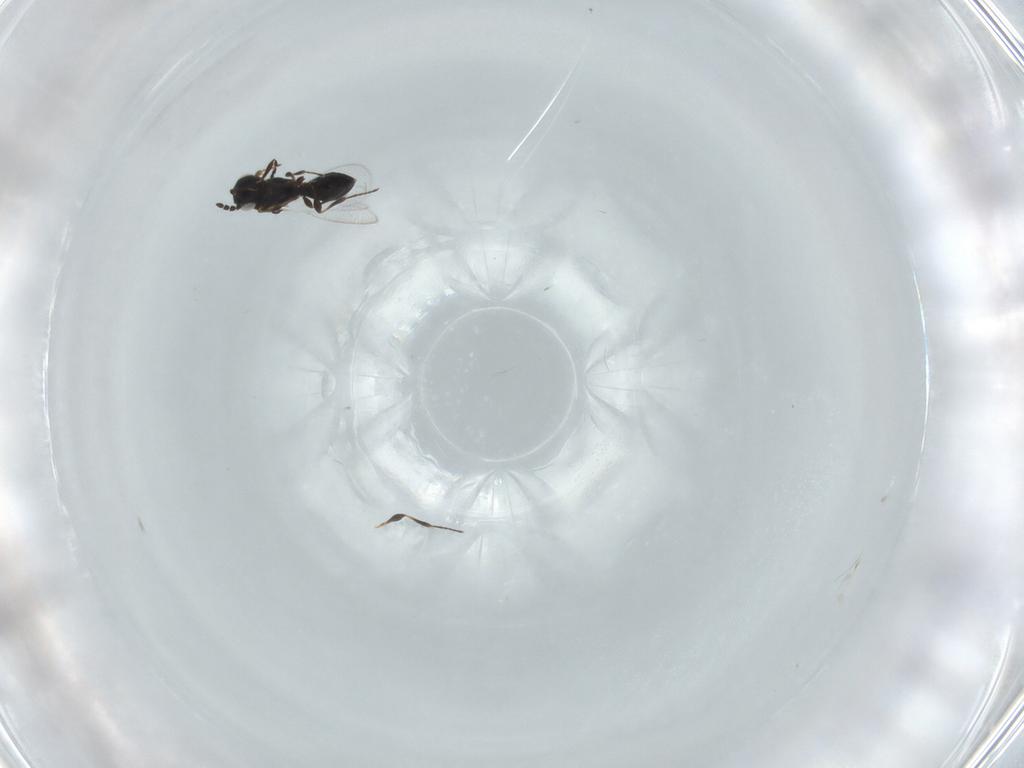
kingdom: Animalia
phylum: Arthropoda
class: Insecta
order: Hymenoptera
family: Platygastridae
